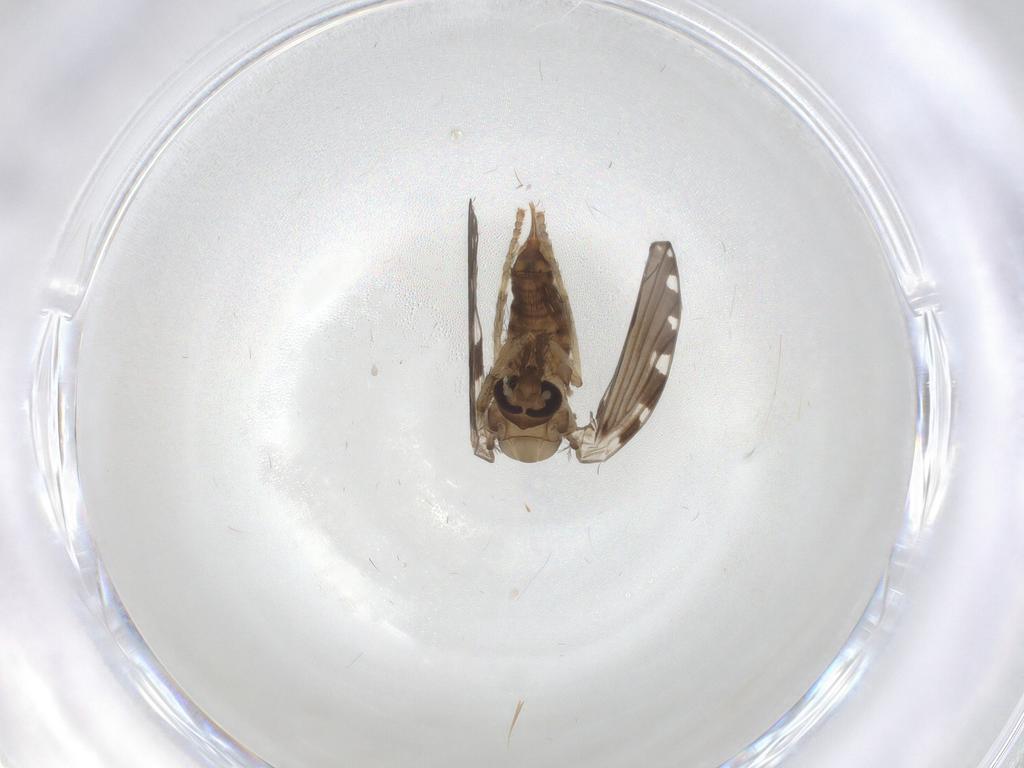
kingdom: Animalia
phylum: Arthropoda
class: Insecta
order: Diptera
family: Psychodidae
